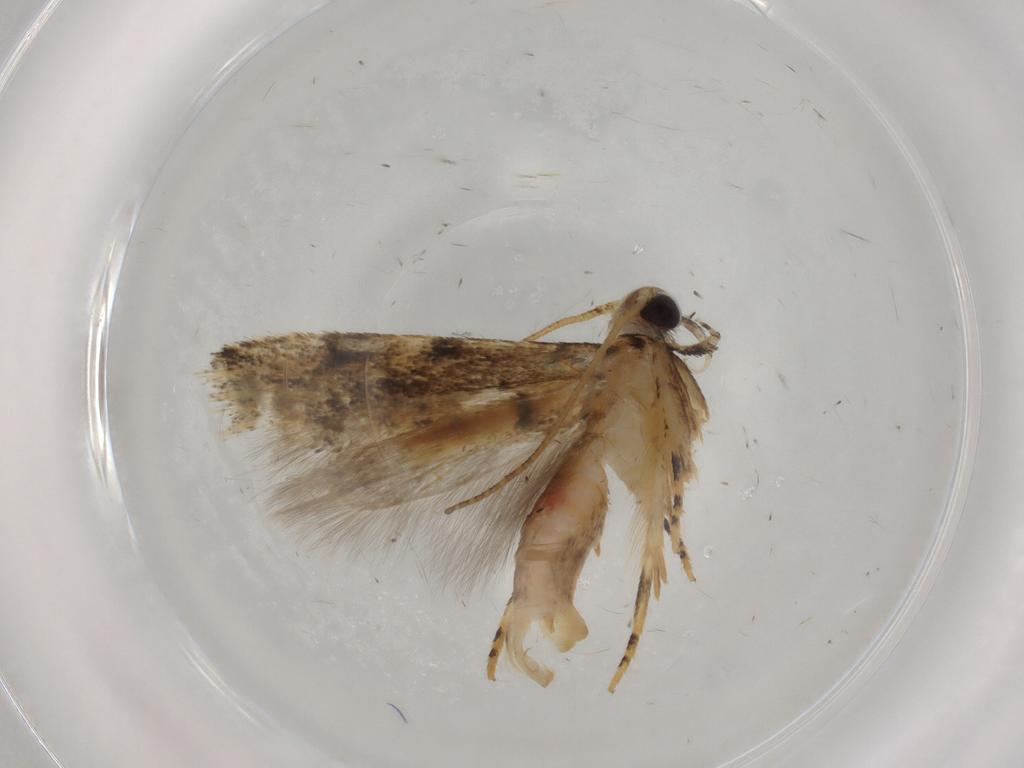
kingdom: Animalia
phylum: Arthropoda
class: Insecta
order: Lepidoptera
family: Gelechiidae
